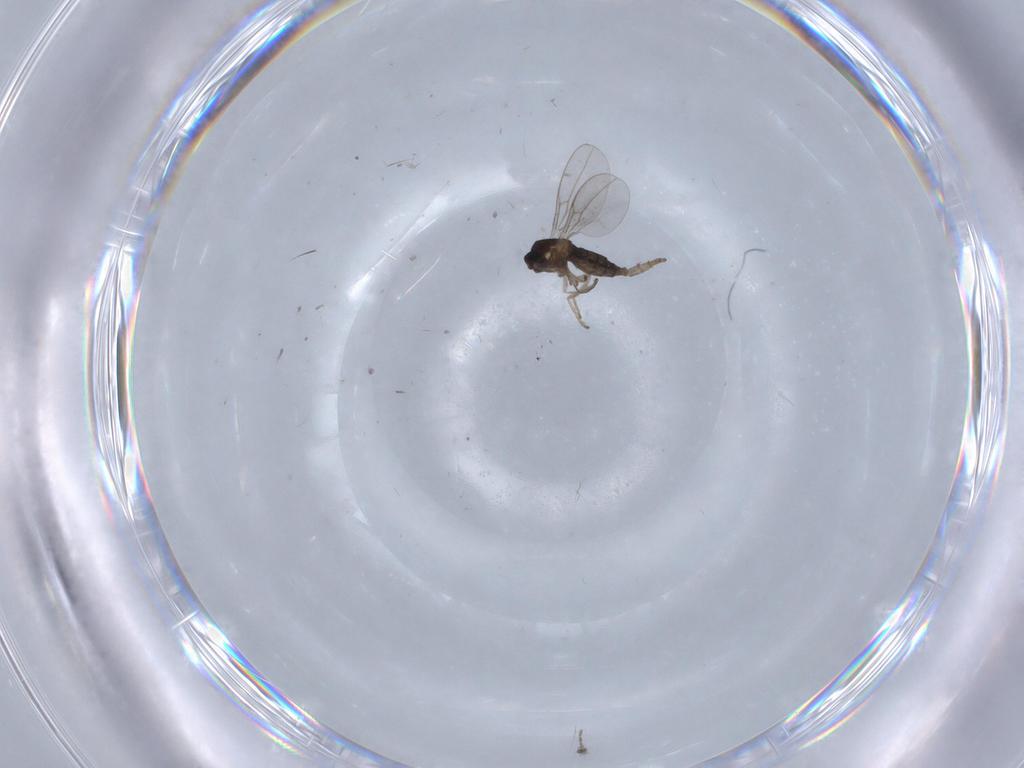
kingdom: Animalia
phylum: Arthropoda
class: Insecta
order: Diptera
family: Ceratopogonidae
